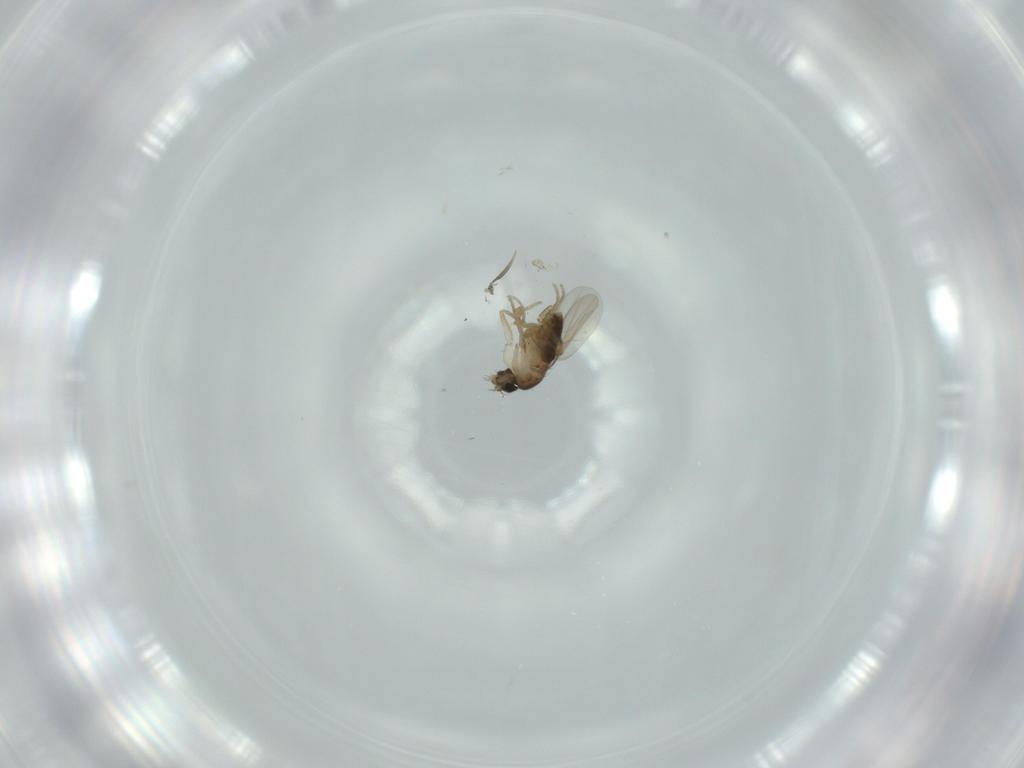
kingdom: Animalia
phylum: Arthropoda
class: Insecta
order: Diptera
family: Phoridae
